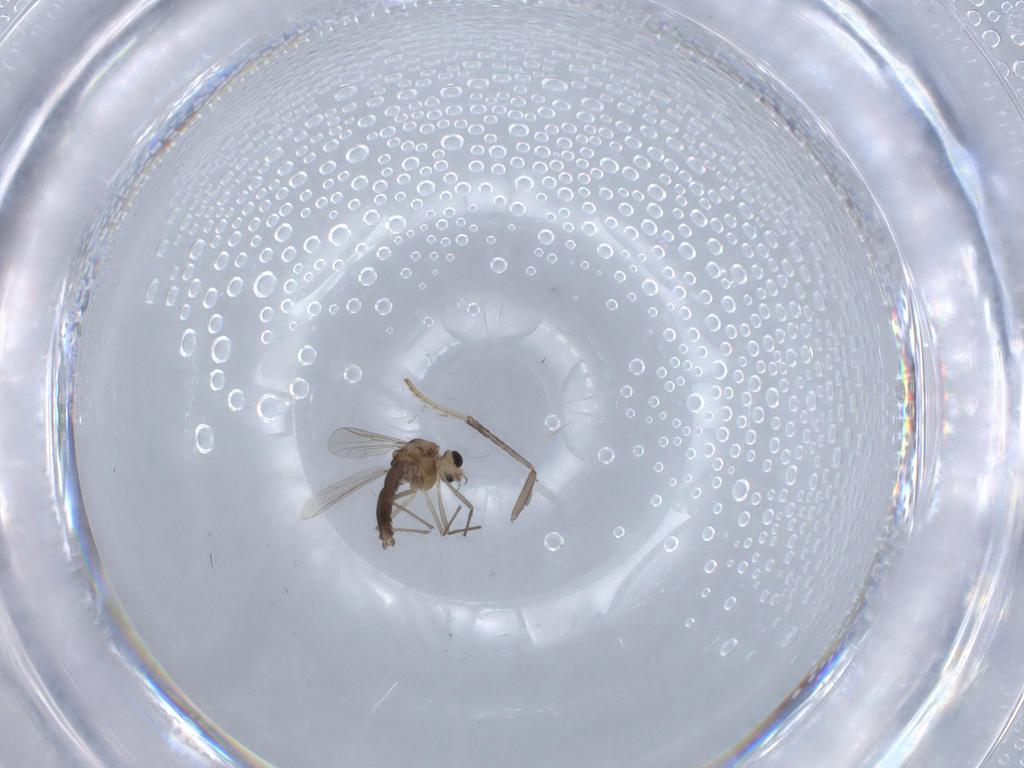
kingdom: Animalia
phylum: Arthropoda
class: Insecta
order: Diptera
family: Chironomidae
